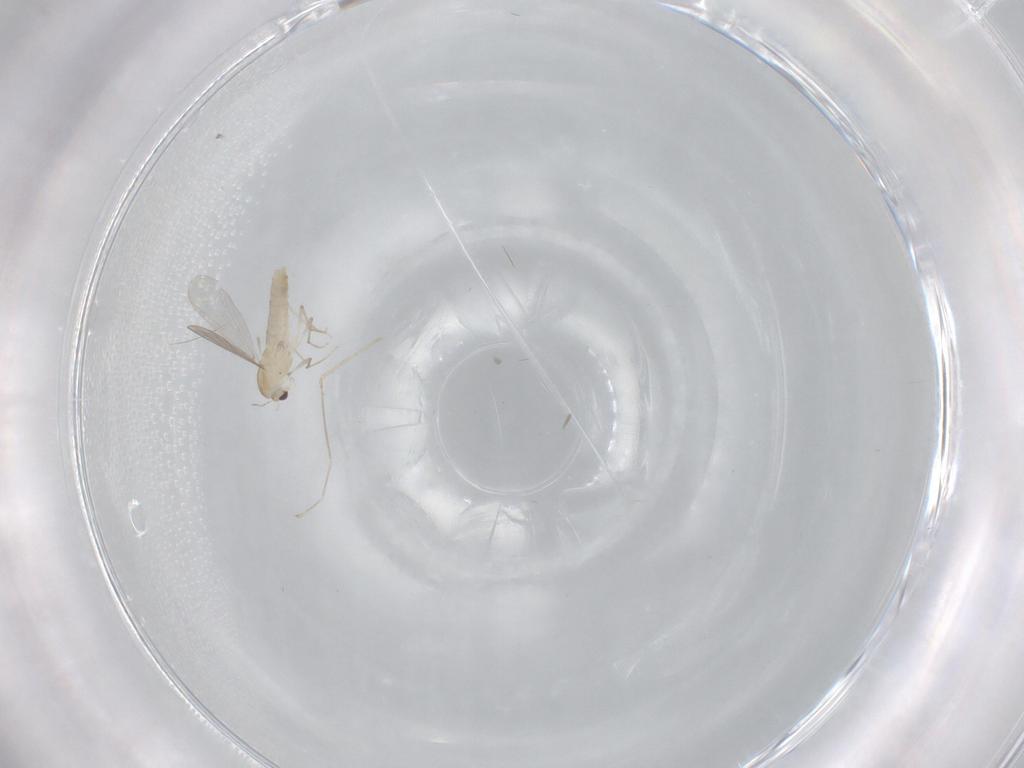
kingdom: Animalia
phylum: Arthropoda
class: Insecta
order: Diptera
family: Chironomidae
